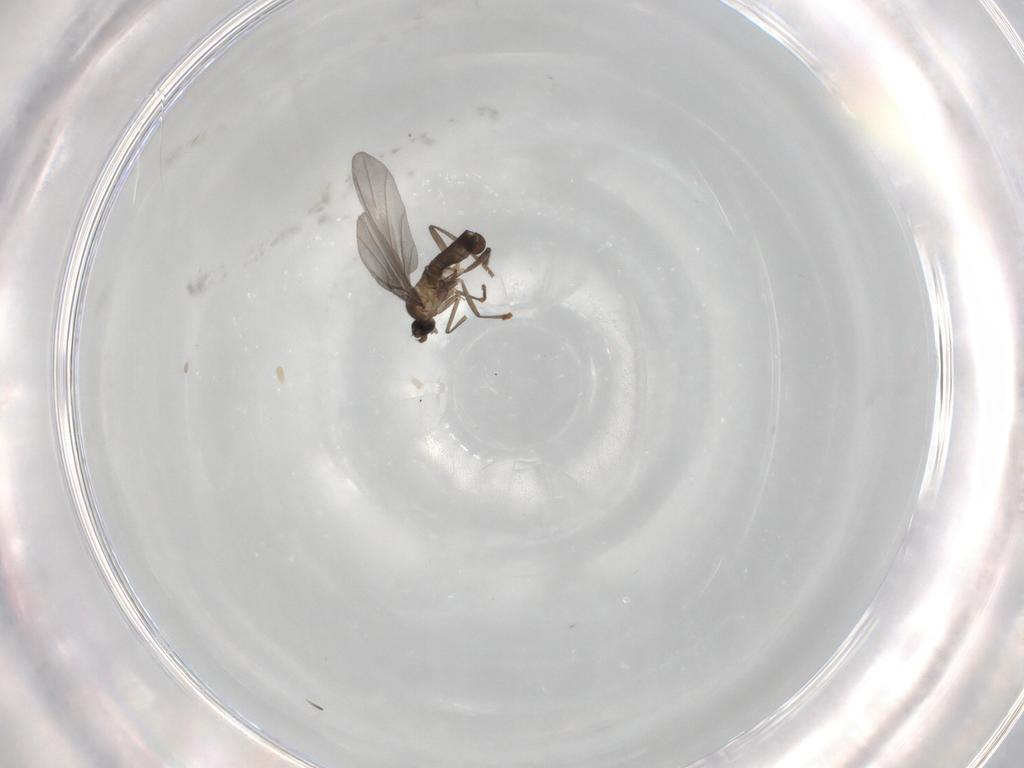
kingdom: Animalia
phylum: Arthropoda
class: Insecta
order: Diptera
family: Phoridae
